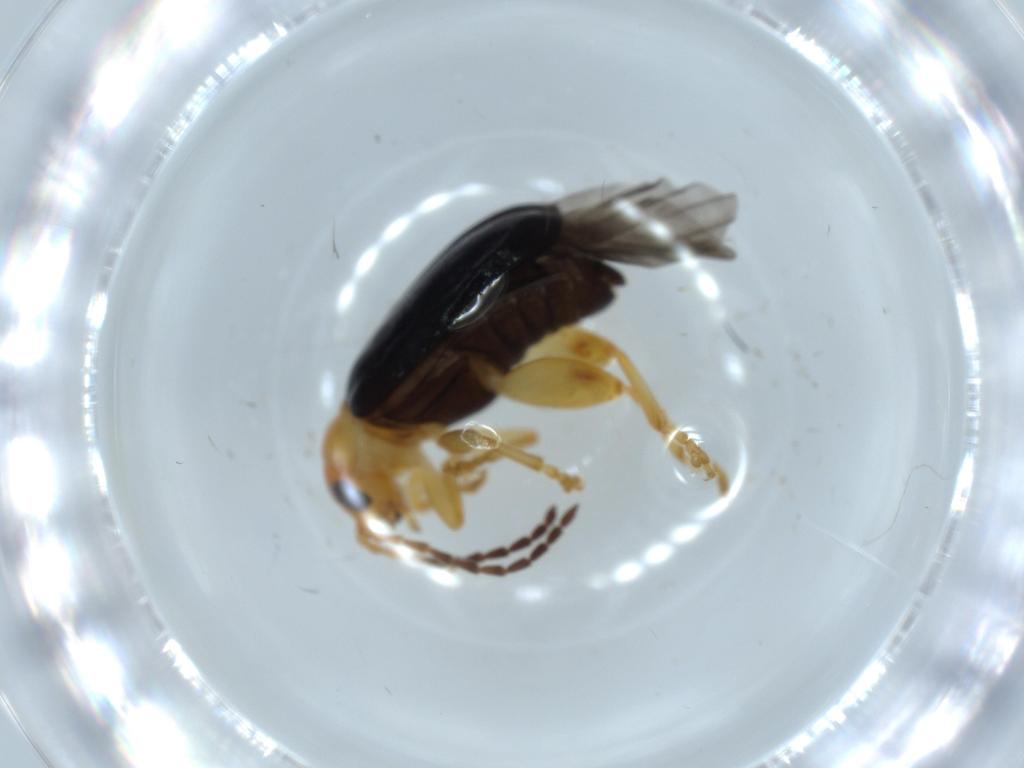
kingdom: Animalia
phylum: Arthropoda
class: Insecta
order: Coleoptera
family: Chrysomelidae
